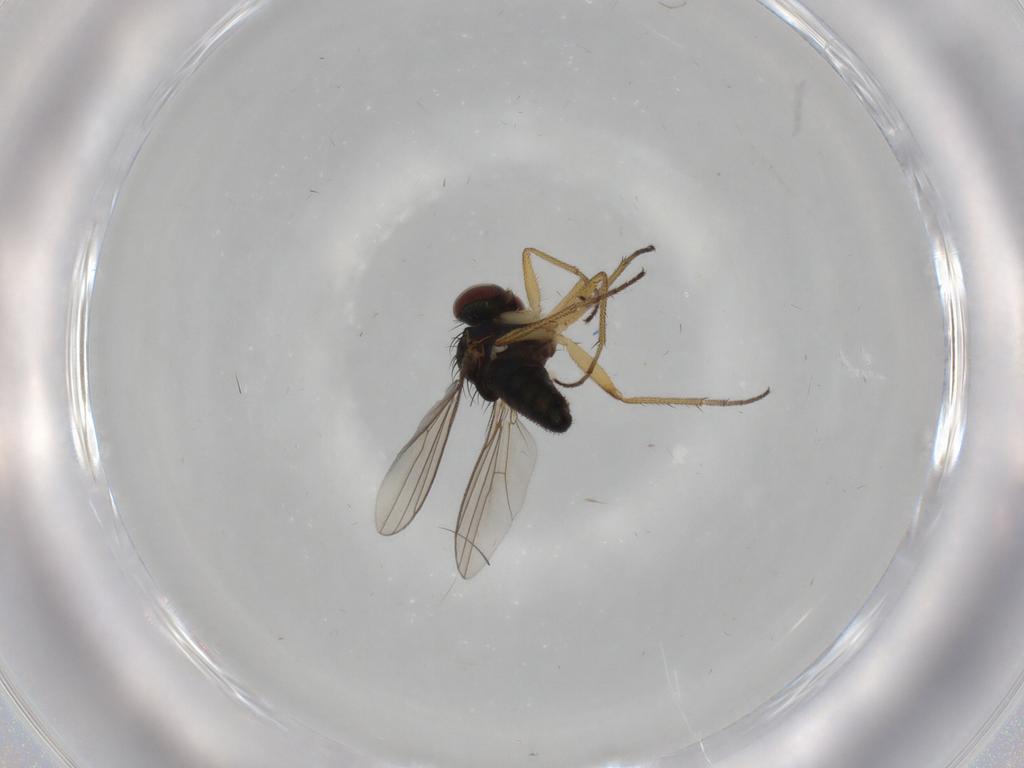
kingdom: Animalia
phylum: Arthropoda
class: Insecta
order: Diptera
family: Dolichopodidae
